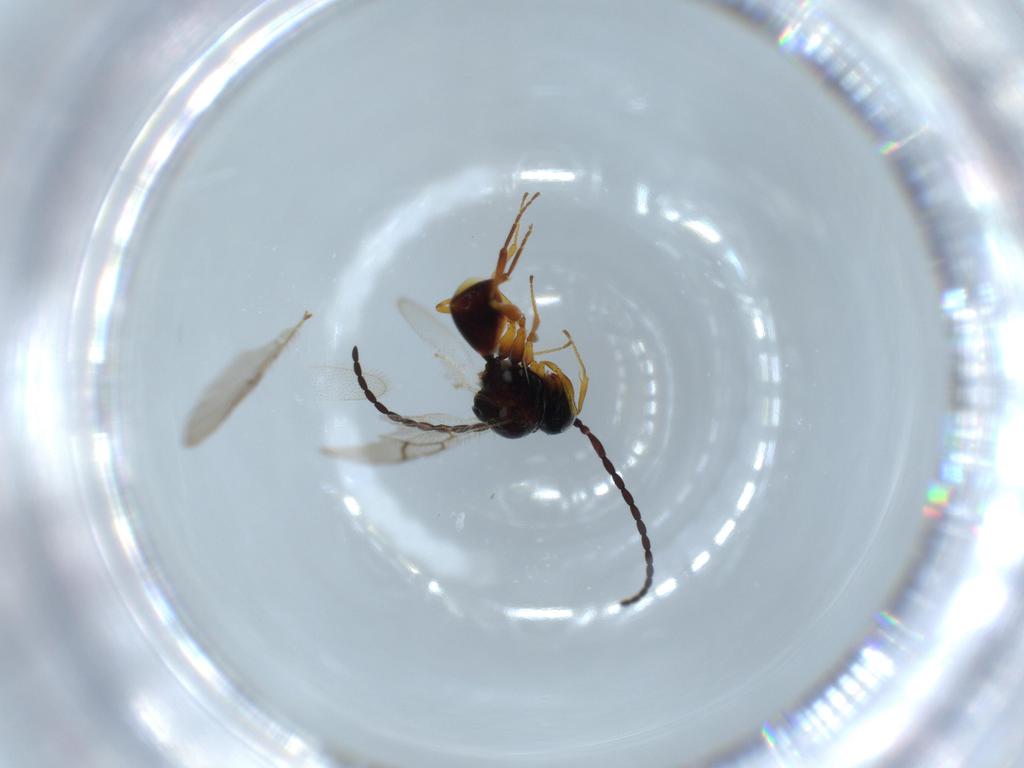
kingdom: Animalia
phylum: Arthropoda
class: Insecta
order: Hymenoptera
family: Figitidae
